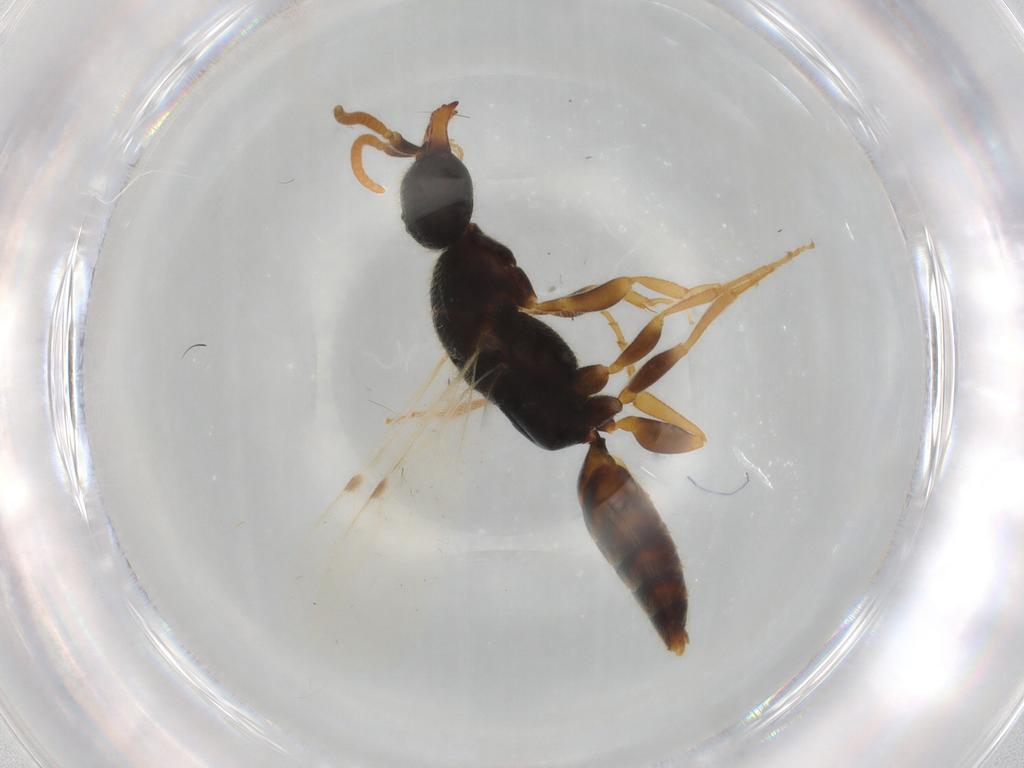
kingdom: Animalia
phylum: Arthropoda
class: Insecta
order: Hymenoptera
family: Bethylidae
